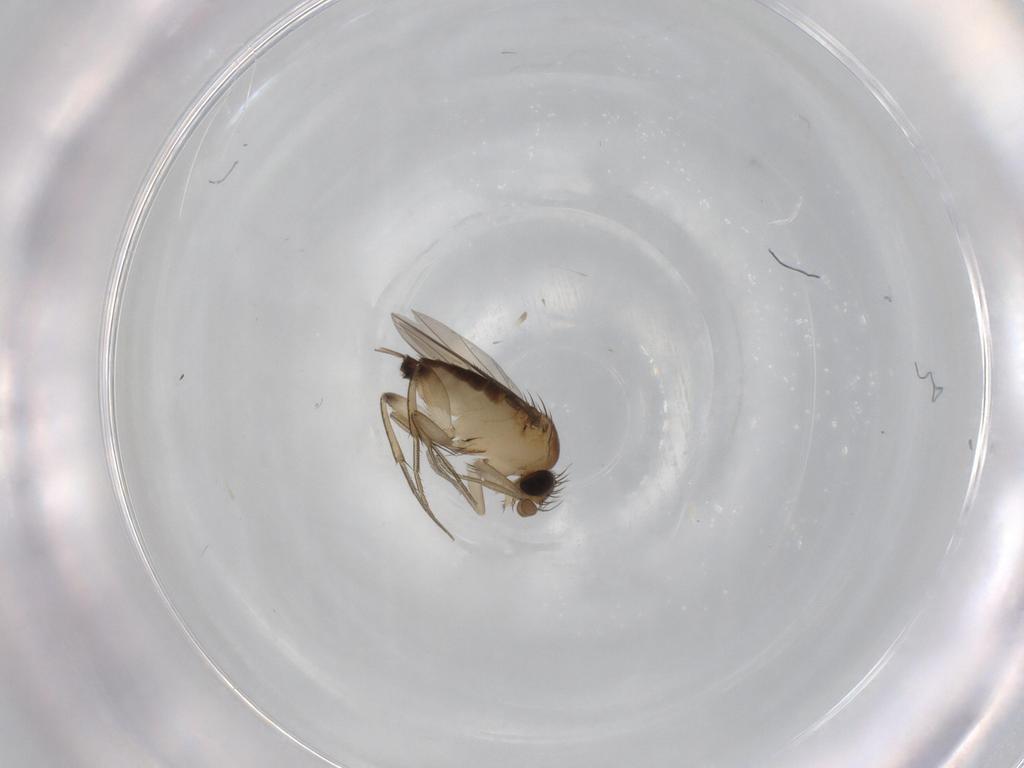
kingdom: Animalia
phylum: Arthropoda
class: Insecta
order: Diptera
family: Phoridae
